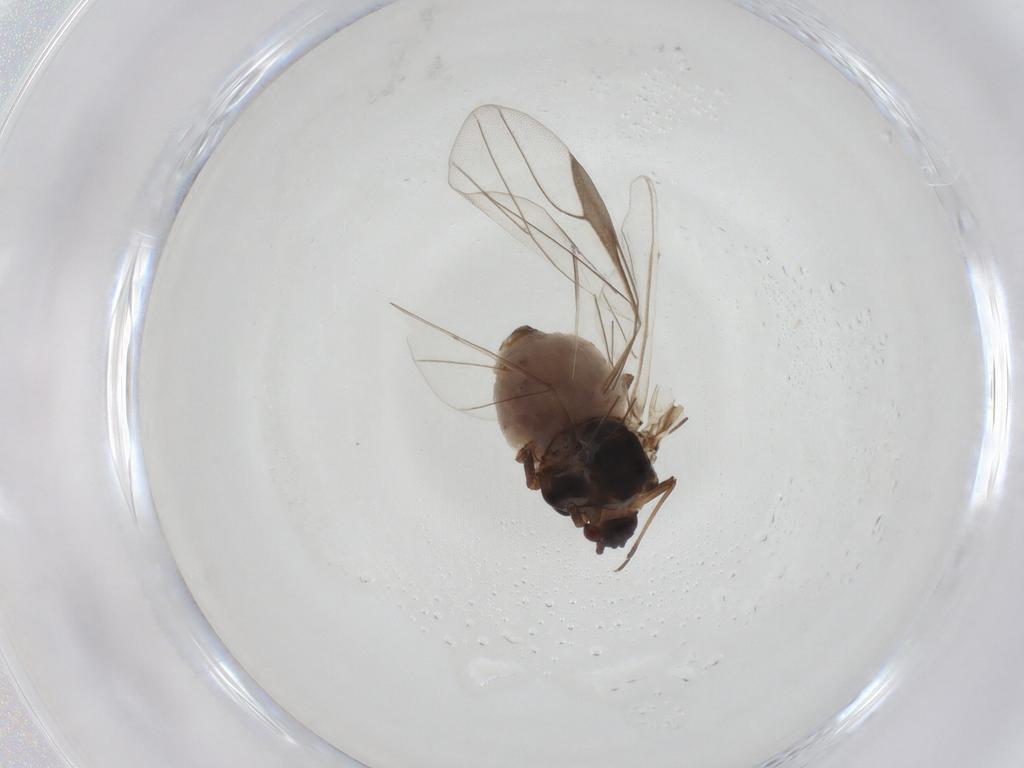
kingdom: Animalia
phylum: Arthropoda
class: Insecta
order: Hemiptera
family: Aphididae
